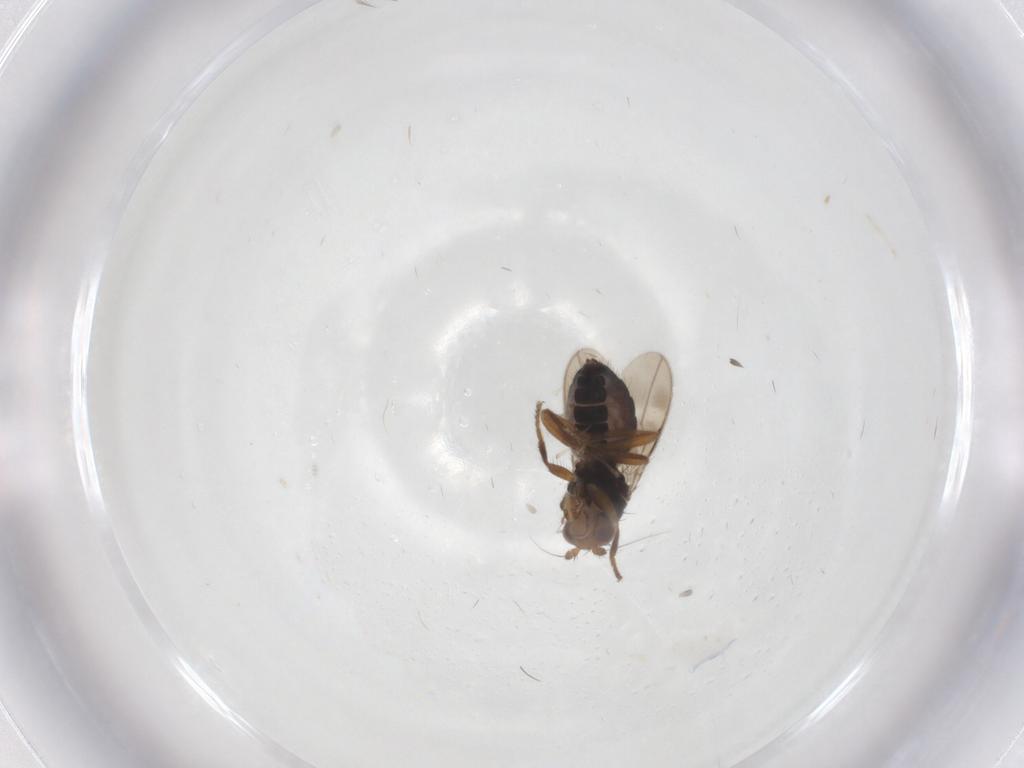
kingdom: Animalia
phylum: Arthropoda
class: Insecta
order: Diptera
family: Sphaeroceridae
